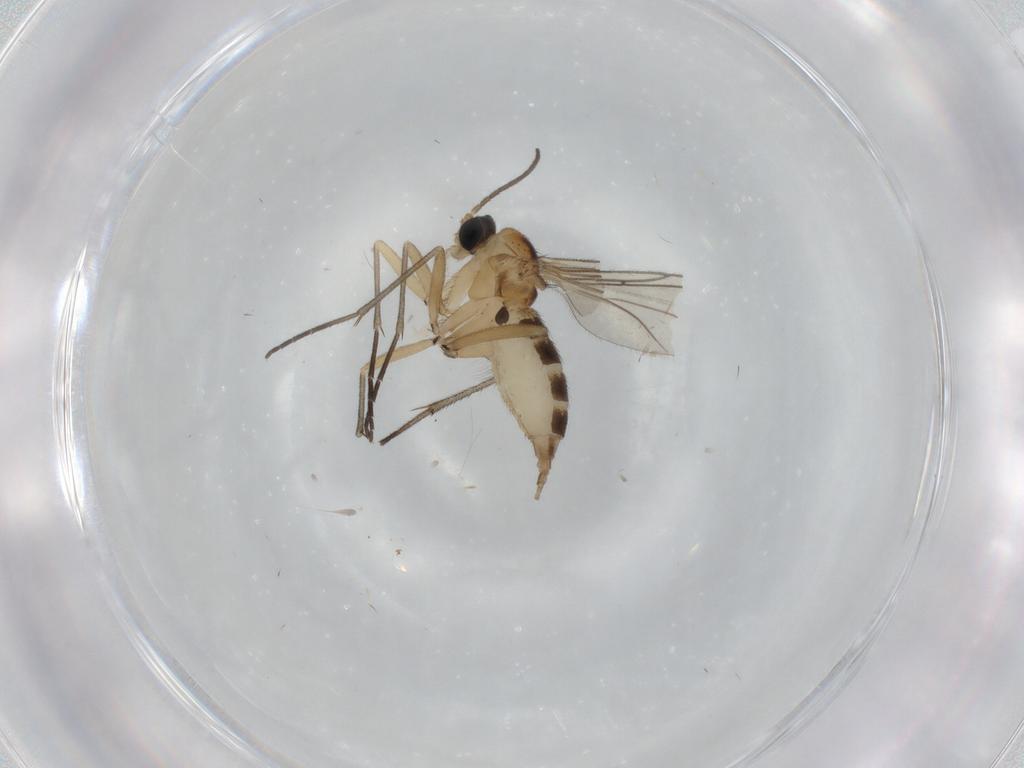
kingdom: Animalia
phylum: Arthropoda
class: Insecta
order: Diptera
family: Sciaridae
